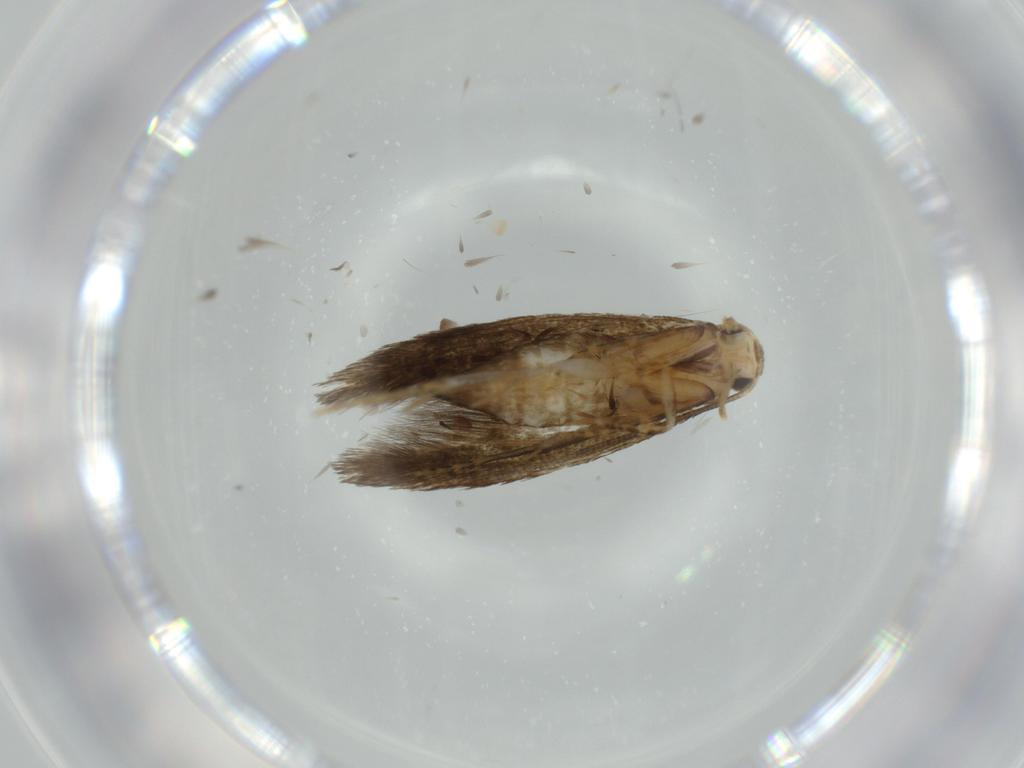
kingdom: Animalia
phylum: Arthropoda
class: Insecta
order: Lepidoptera
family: Tineidae
